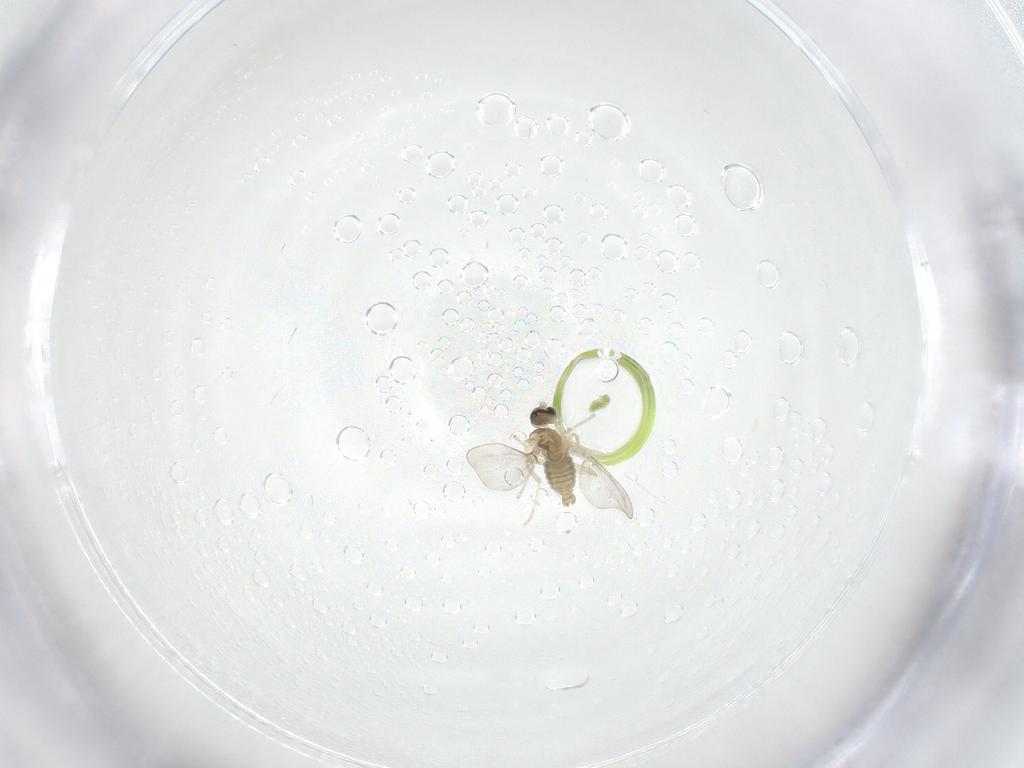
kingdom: Animalia
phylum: Arthropoda
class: Insecta
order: Diptera
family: Cecidomyiidae
